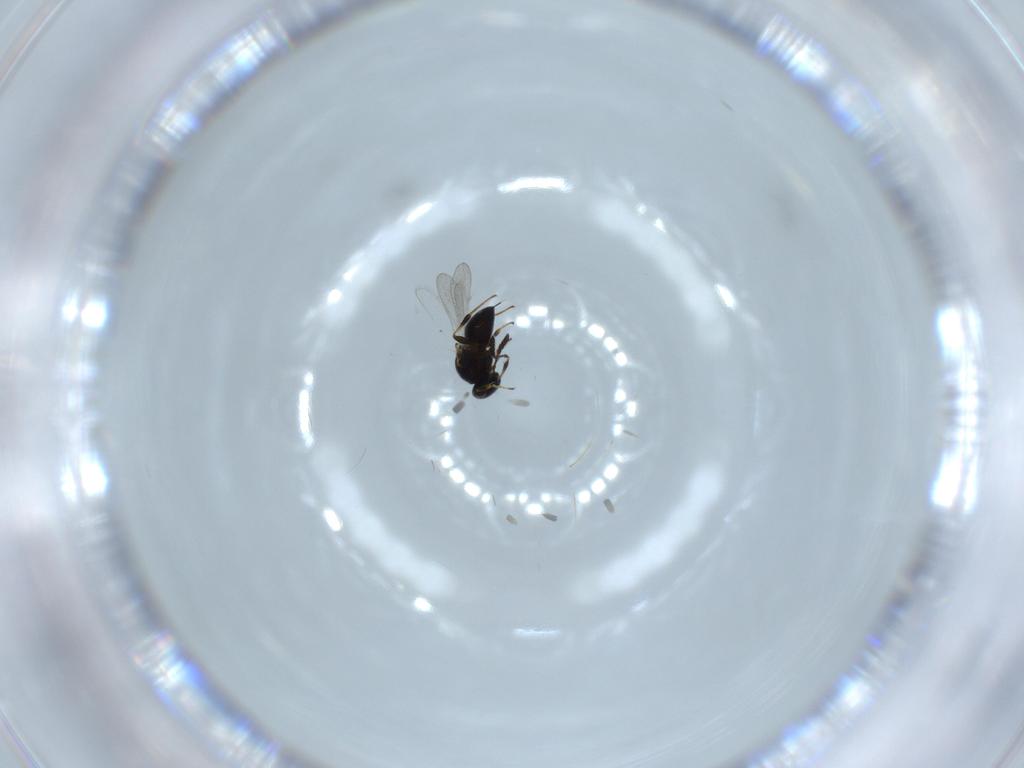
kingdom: Animalia
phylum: Arthropoda
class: Insecta
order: Hymenoptera
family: Platygastridae
